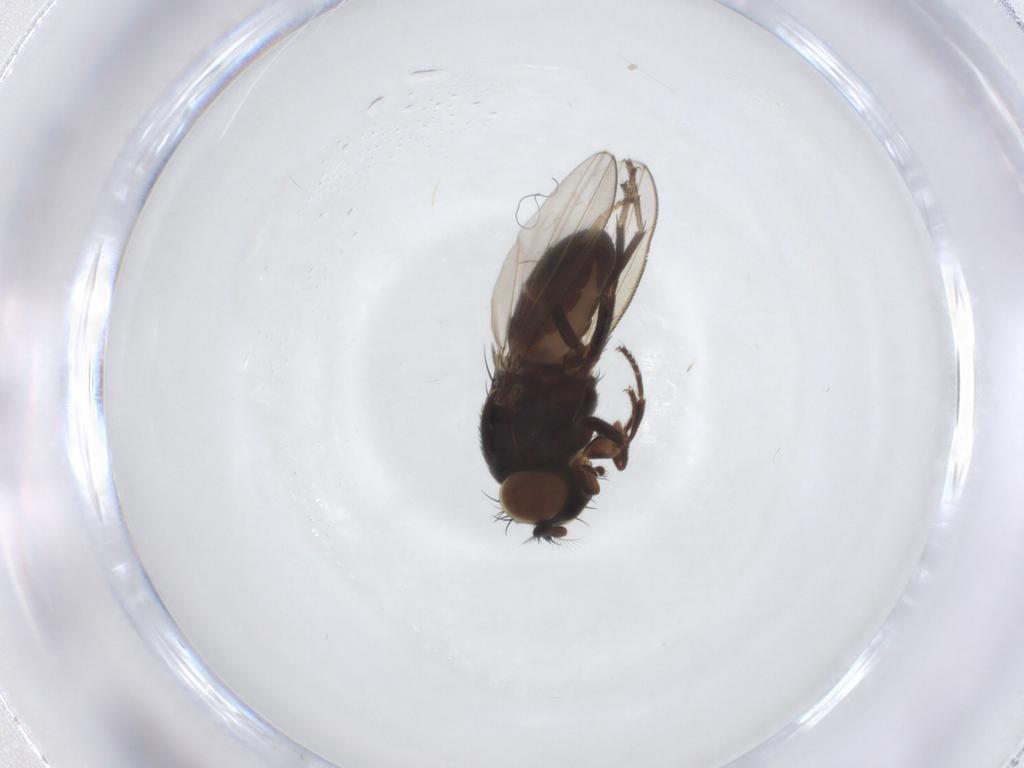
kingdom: Animalia
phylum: Arthropoda
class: Insecta
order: Diptera
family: Ephydridae
